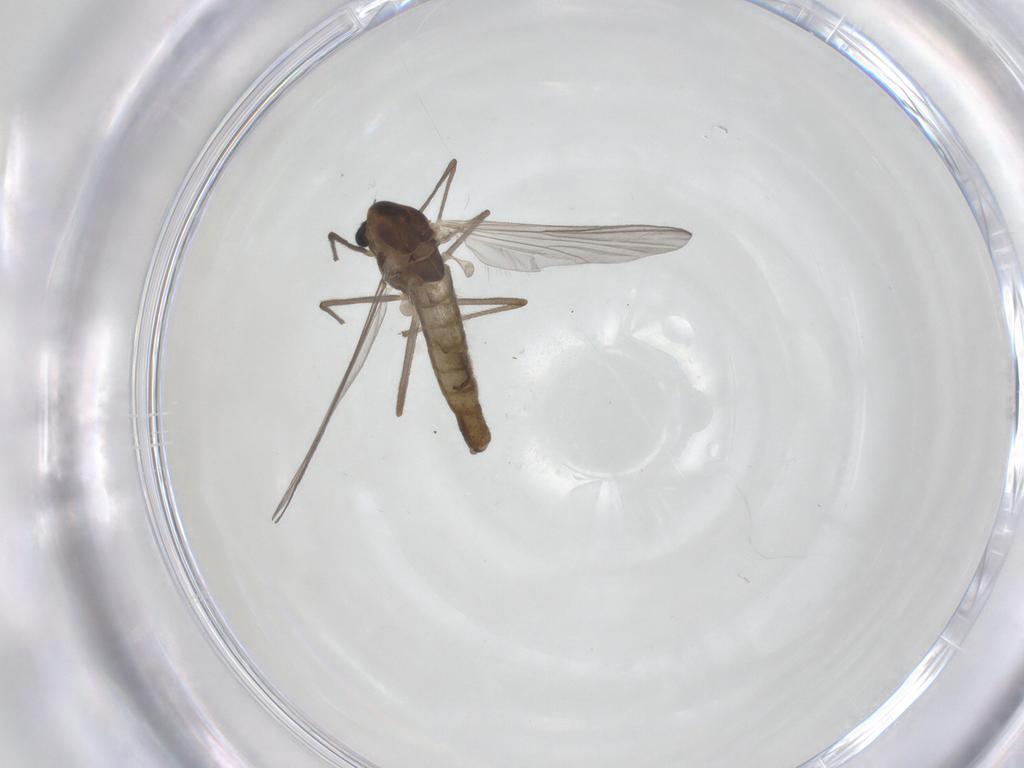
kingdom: Animalia
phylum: Arthropoda
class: Insecta
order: Diptera
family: Chironomidae
